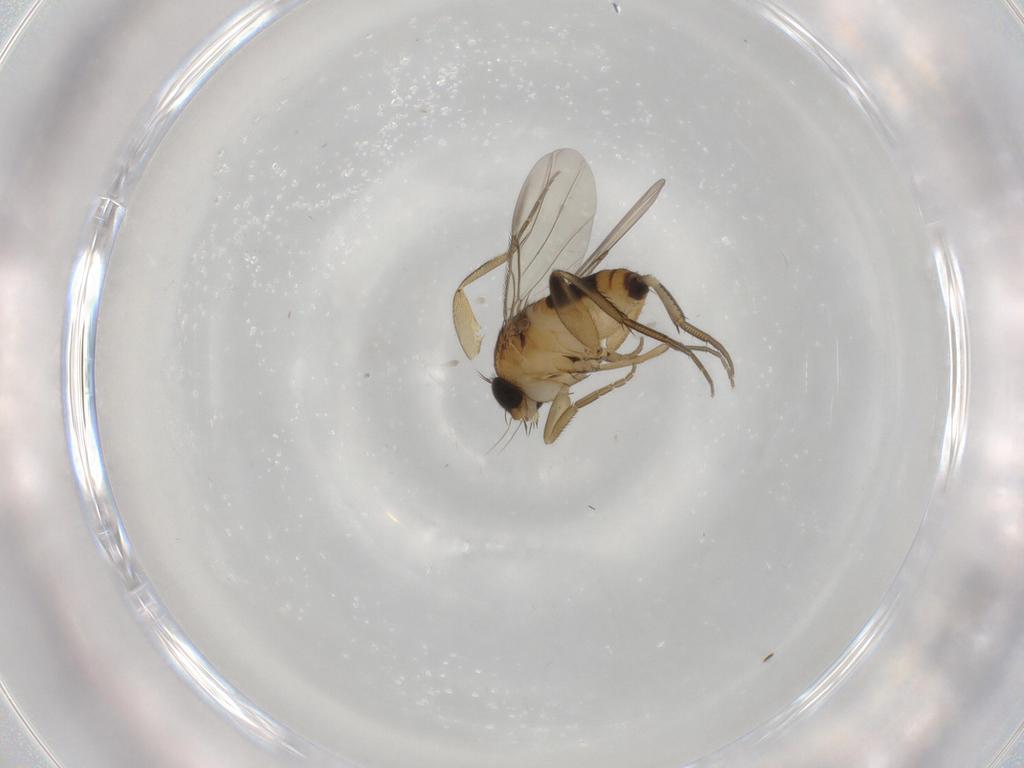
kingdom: Animalia
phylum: Arthropoda
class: Insecta
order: Diptera
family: Phoridae
